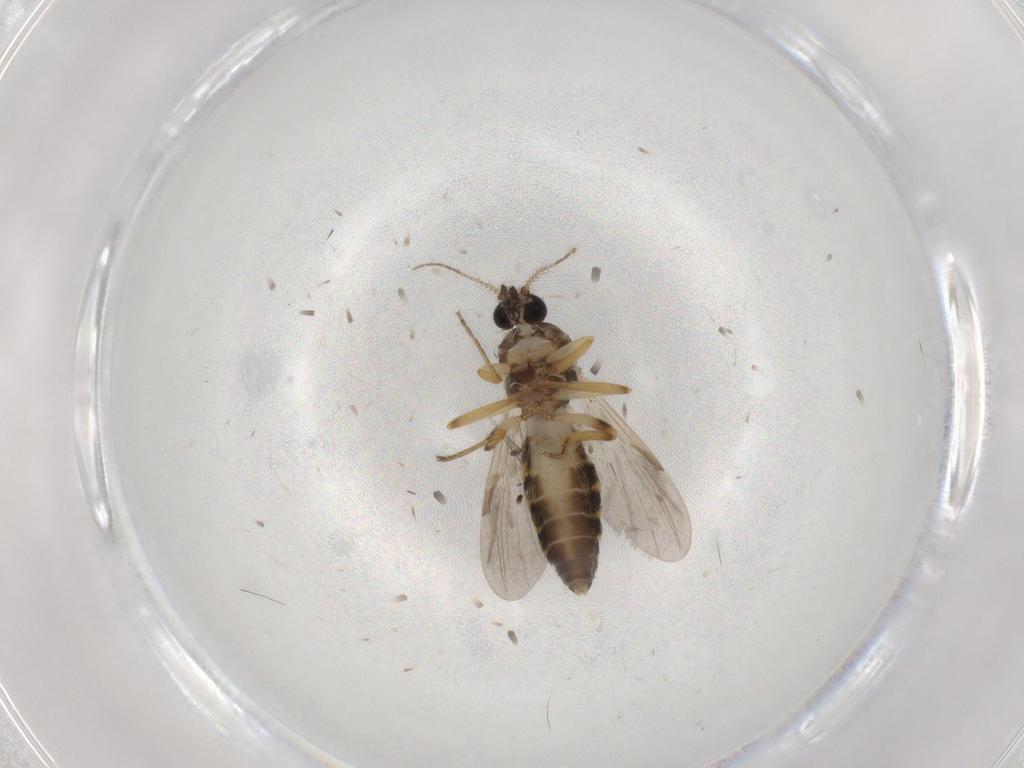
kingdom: Animalia
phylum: Arthropoda
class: Insecta
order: Diptera
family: Ceratopogonidae
